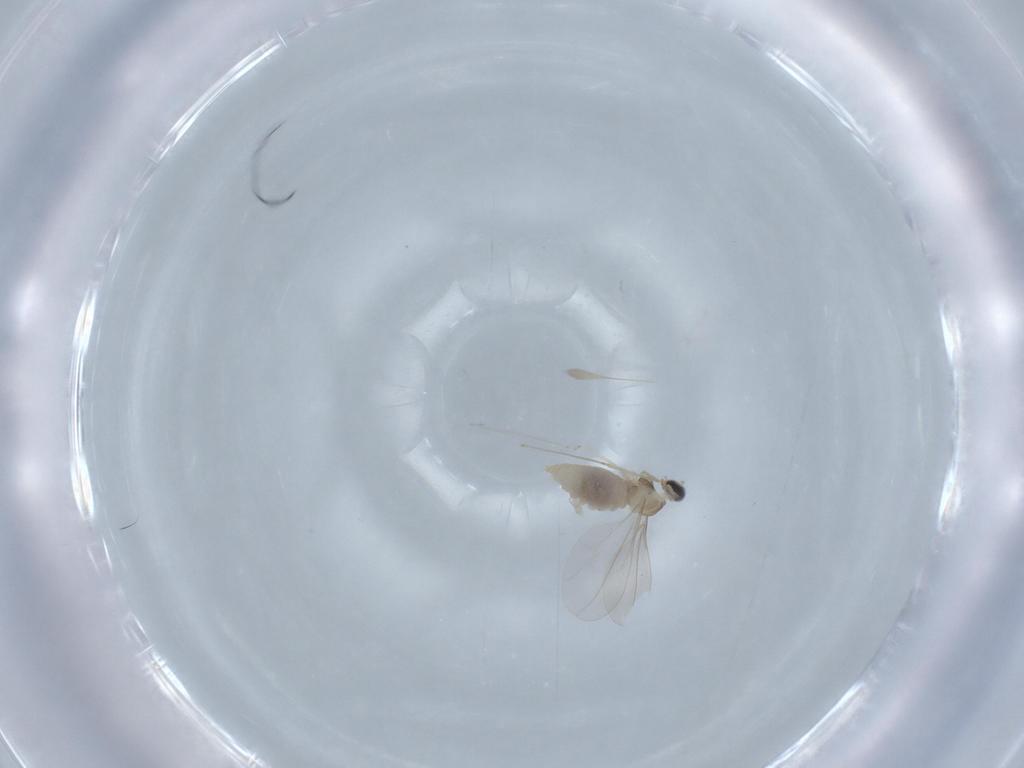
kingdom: Animalia
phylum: Arthropoda
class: Insecta
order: Diptera
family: Cecidomyiidae
